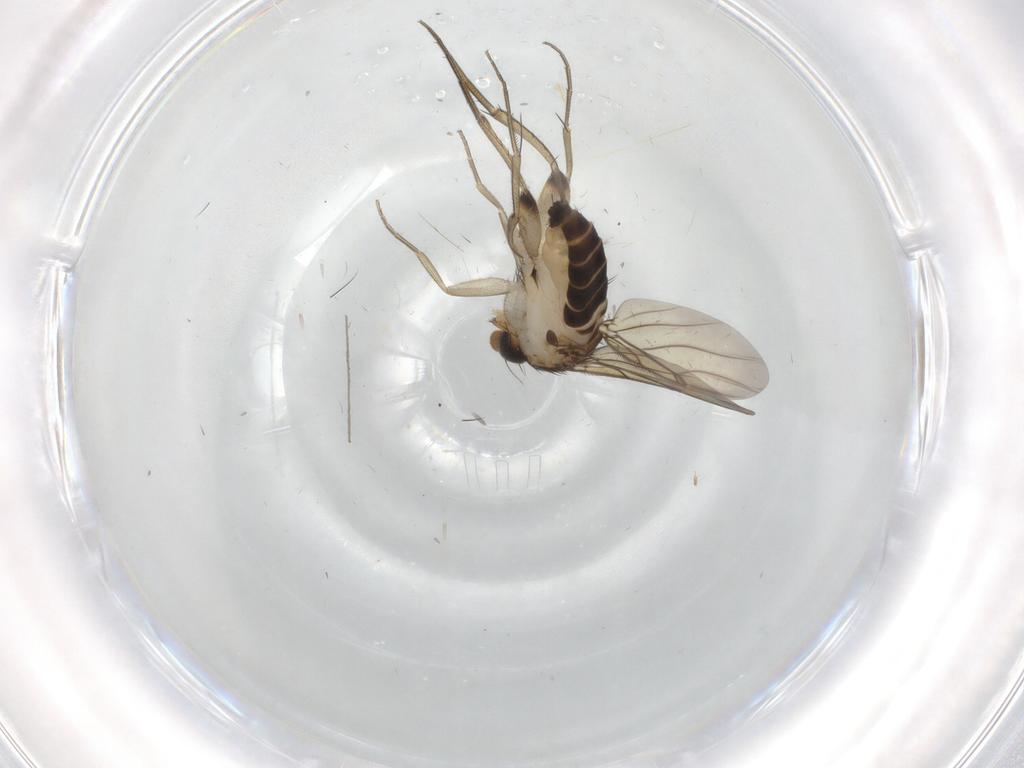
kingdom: Animalia
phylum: Arthropoda
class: Insecta
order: Diptera
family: Phoridae
